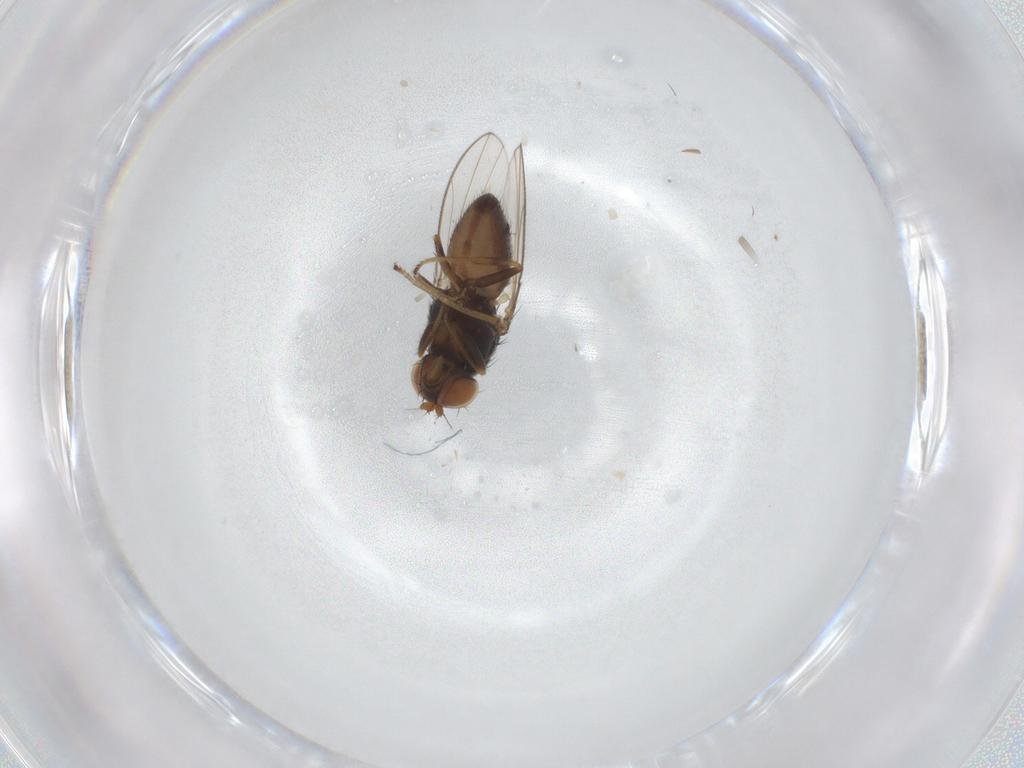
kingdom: Animalia
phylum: Arthropoda
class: Insecta
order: Diptera
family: Ephydridae
